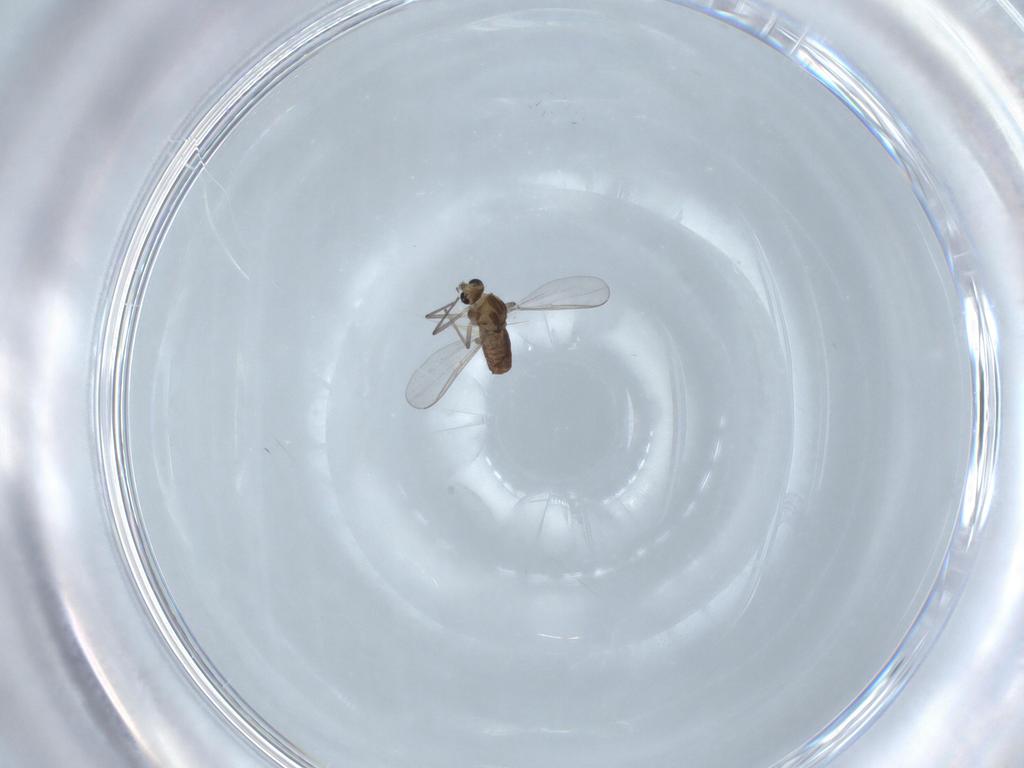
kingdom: Animalia
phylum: Arthropoda
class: Insecta
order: Diptera
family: Chironomidae
